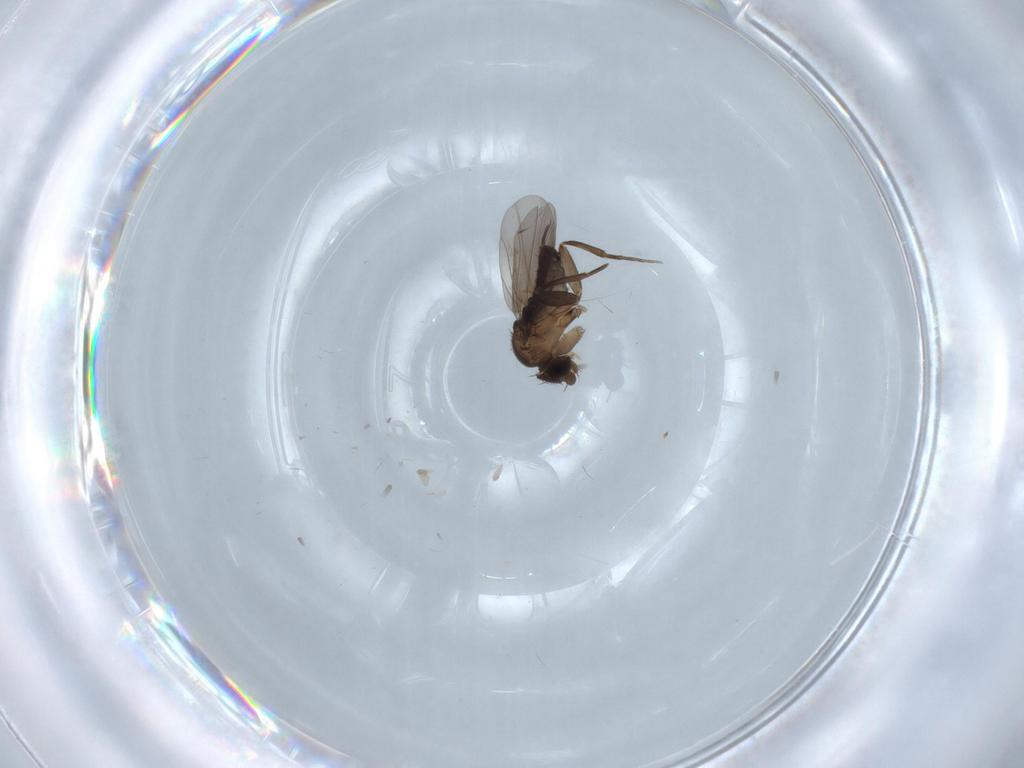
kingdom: Animalia
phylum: Arthropoda
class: Insecta
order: Diptera
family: Phoridae
